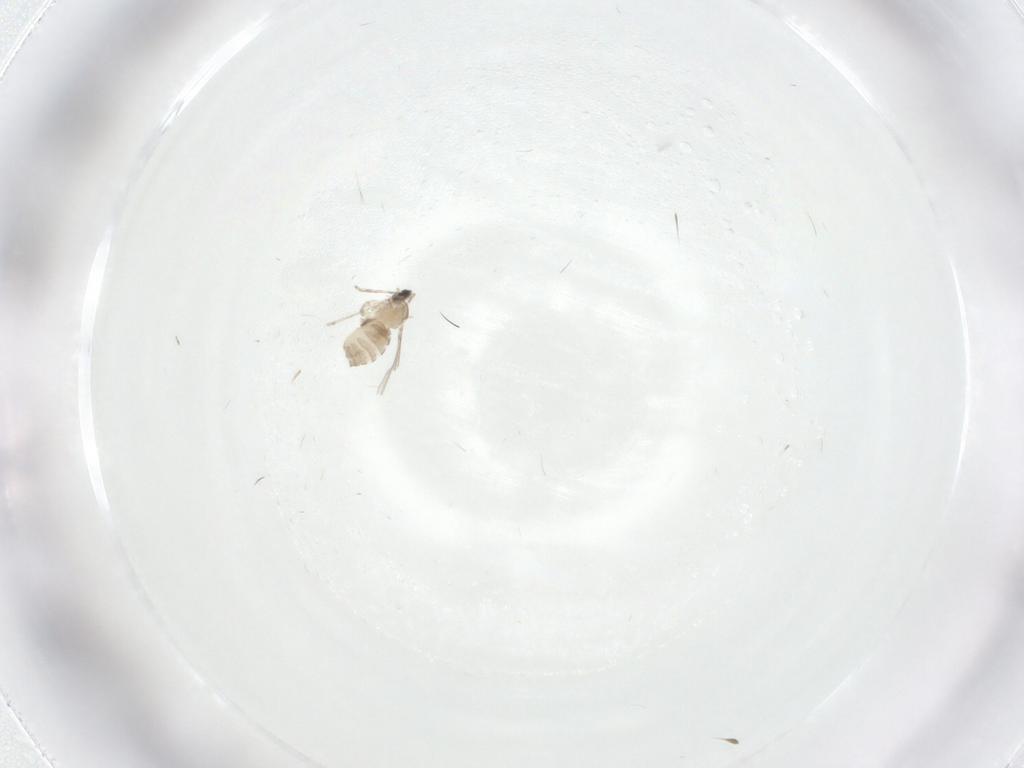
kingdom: Animalia
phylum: Arthropoda
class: Insecta
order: Diptera
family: Cecidomyiidae
